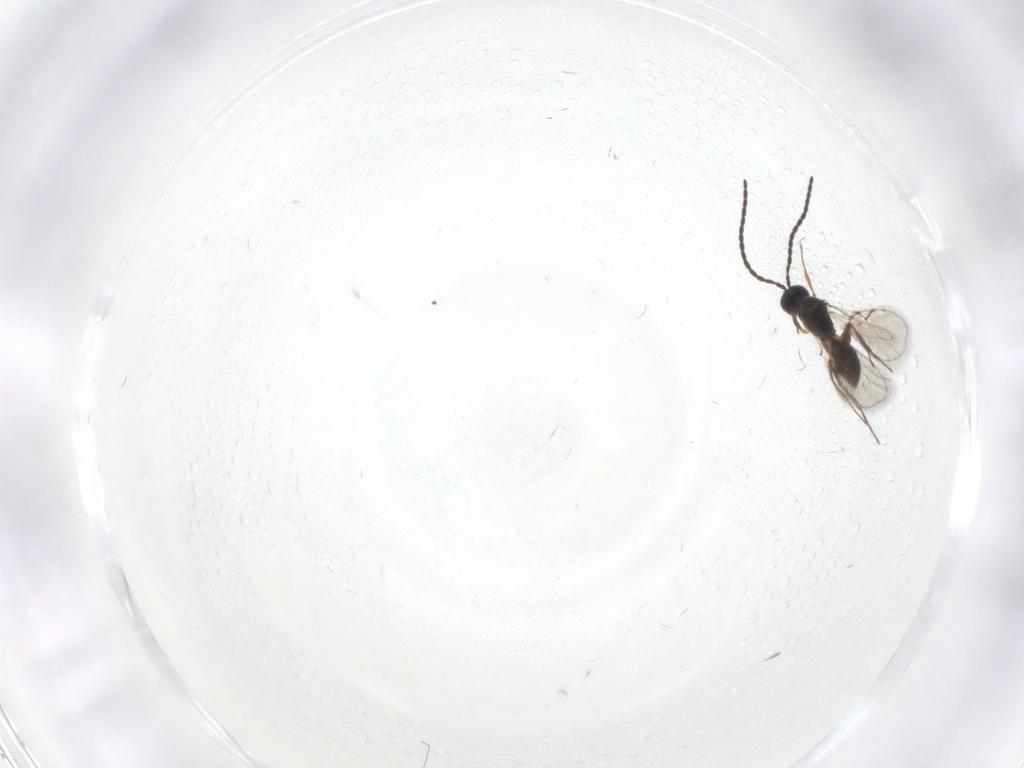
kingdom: Animalia
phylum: Arthropoda
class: Insecta
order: Hymenoptera
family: Figitidae
